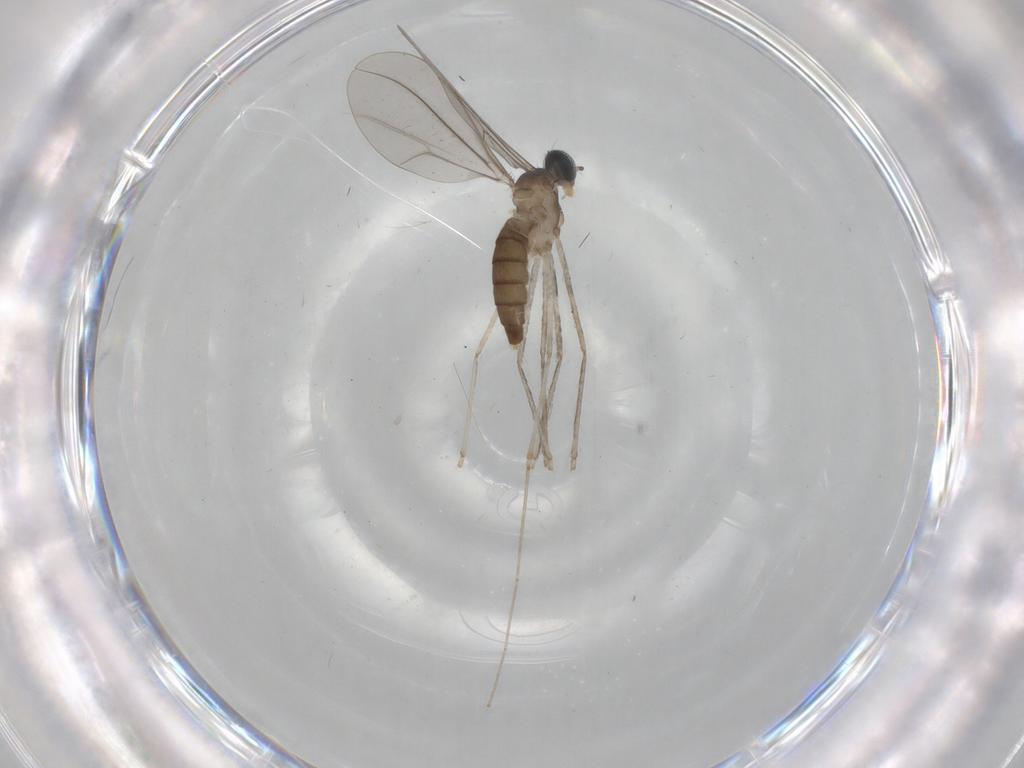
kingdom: Animalia
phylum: Arthropoda
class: Insecta
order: Diptera
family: Cecidomyiidae
